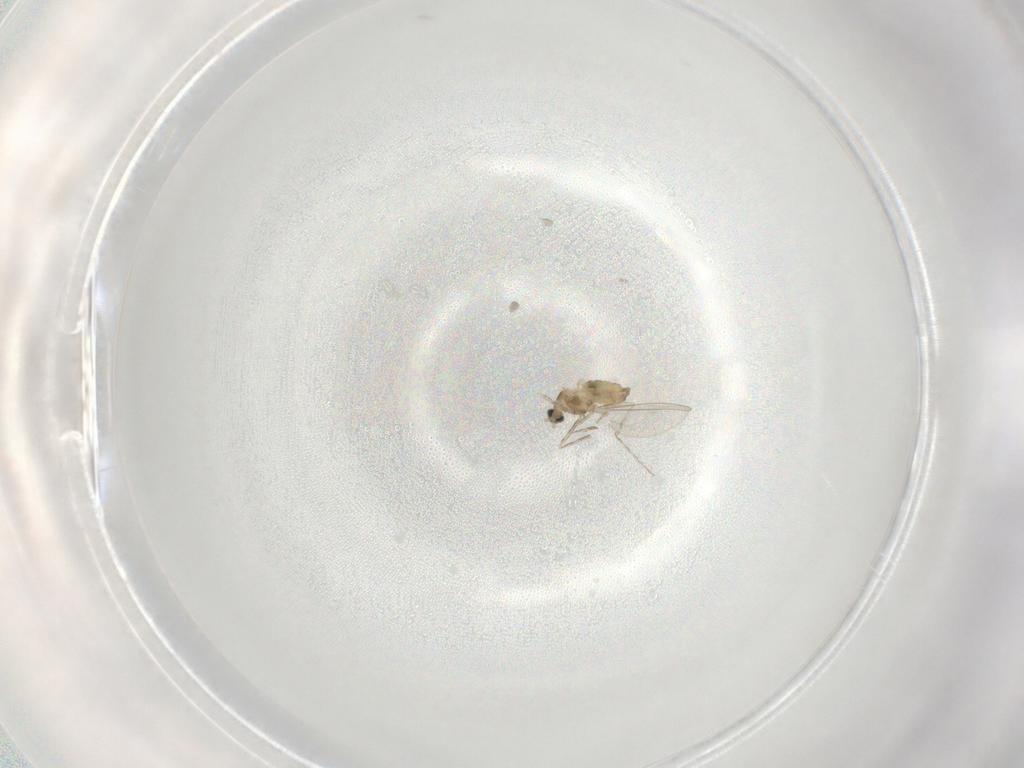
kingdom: Animalia
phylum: Arthropoda
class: Insecta
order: Diptera
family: Cecidomyiidae
